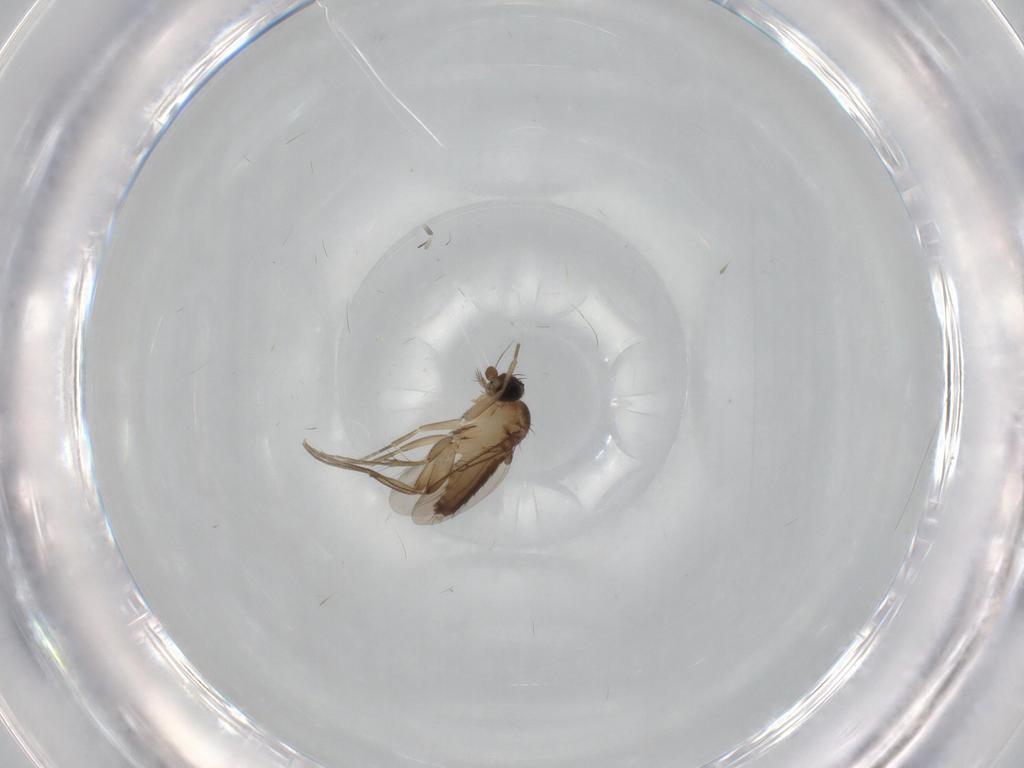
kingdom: Animalia
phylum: Arthropoda
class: Insecta
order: Diptera
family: Phoridae
